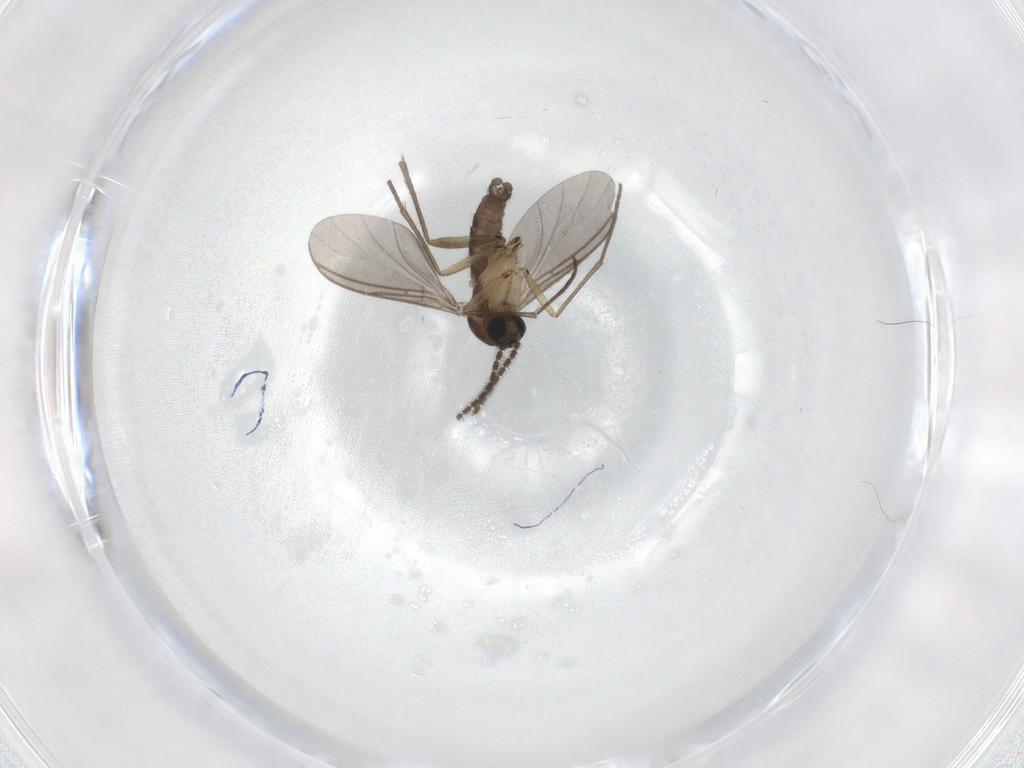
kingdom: Animalia
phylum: Arthropoda
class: Insecta
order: Diptera
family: Sciaridae
